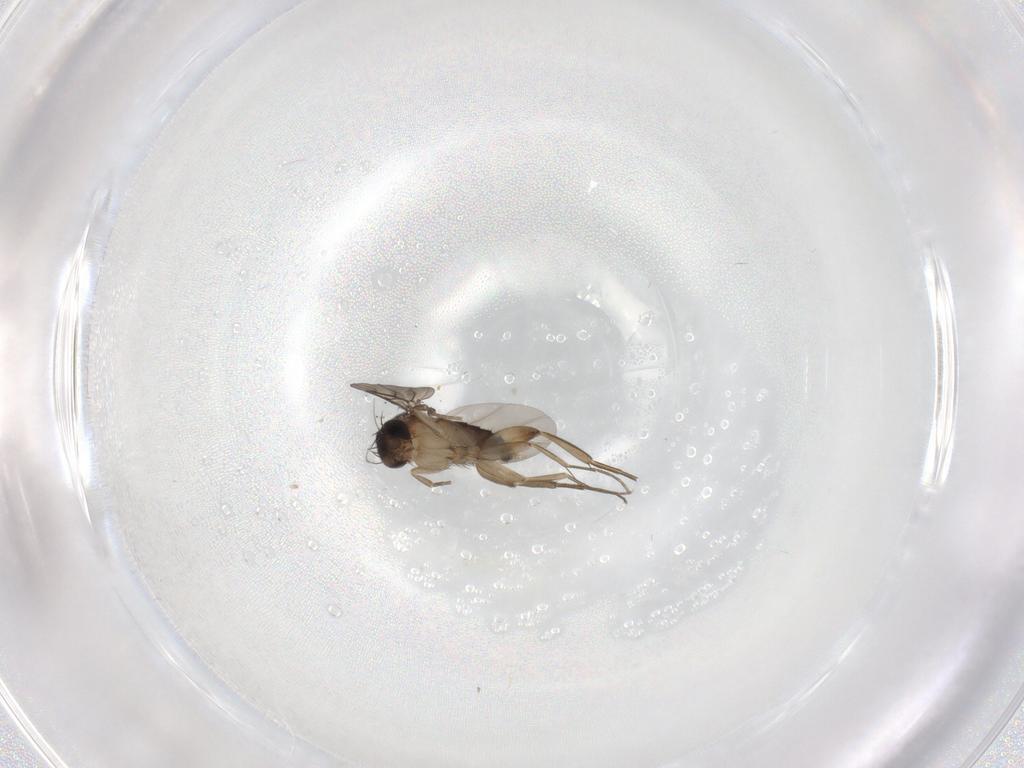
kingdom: Animalia
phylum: Arthropoda
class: Insecta
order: Diptera
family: Phoridae
